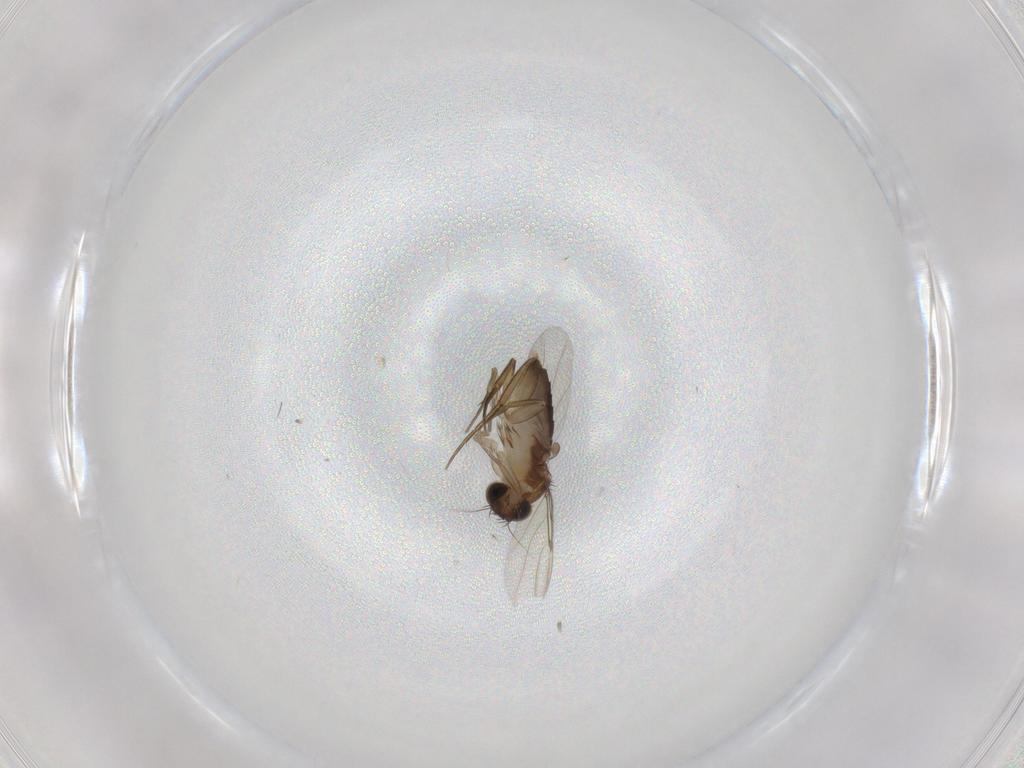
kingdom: Animalia
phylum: Arthropoda
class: Insecta
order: Diptera
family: Phoridae
